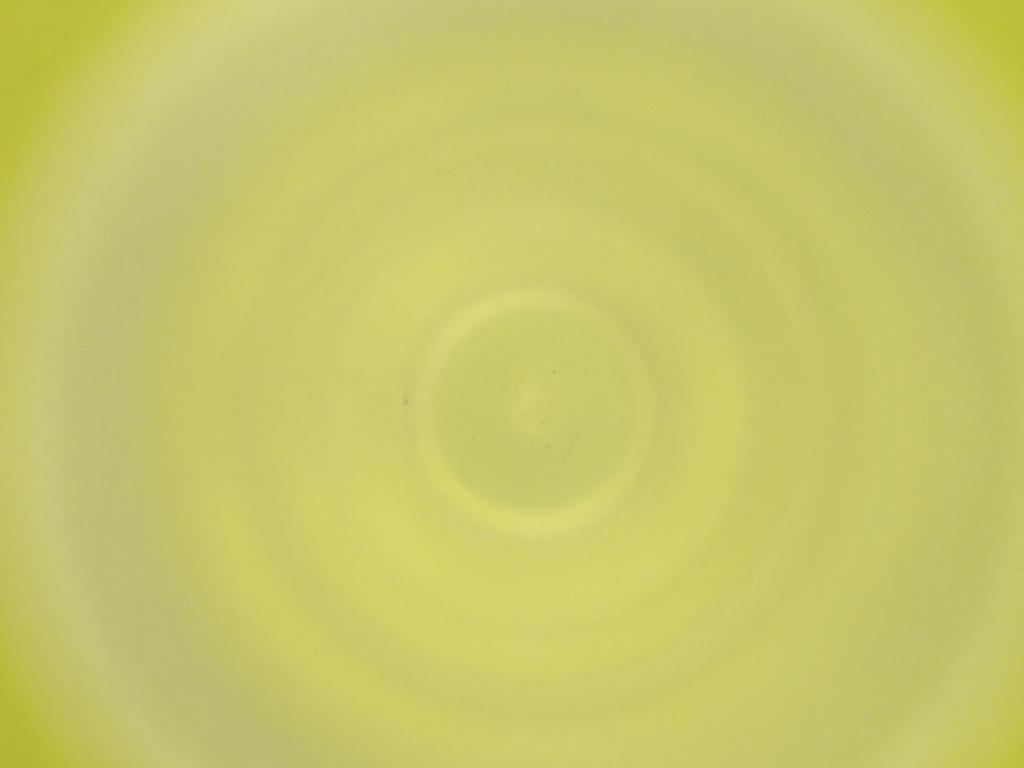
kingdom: Animalia
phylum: Arthropoda
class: Insecta
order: Diptera
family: Cecidomyiidae
